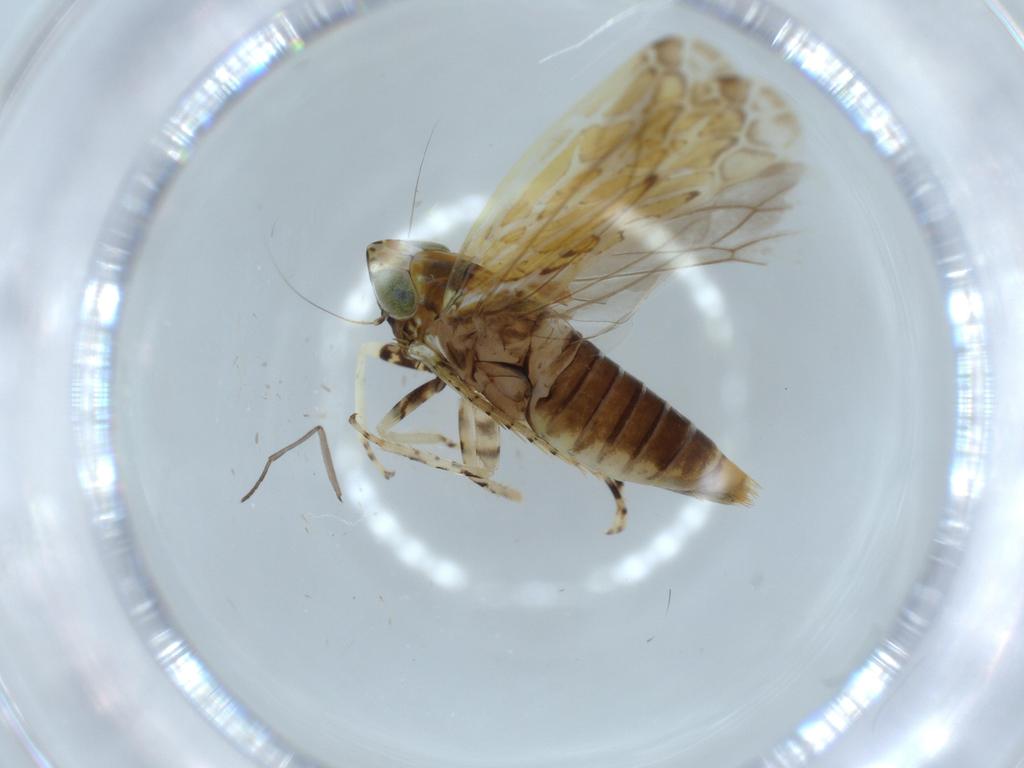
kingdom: Animalia
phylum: Arthropoda
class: Insecta
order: Hemiptera
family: Cicadellidae
